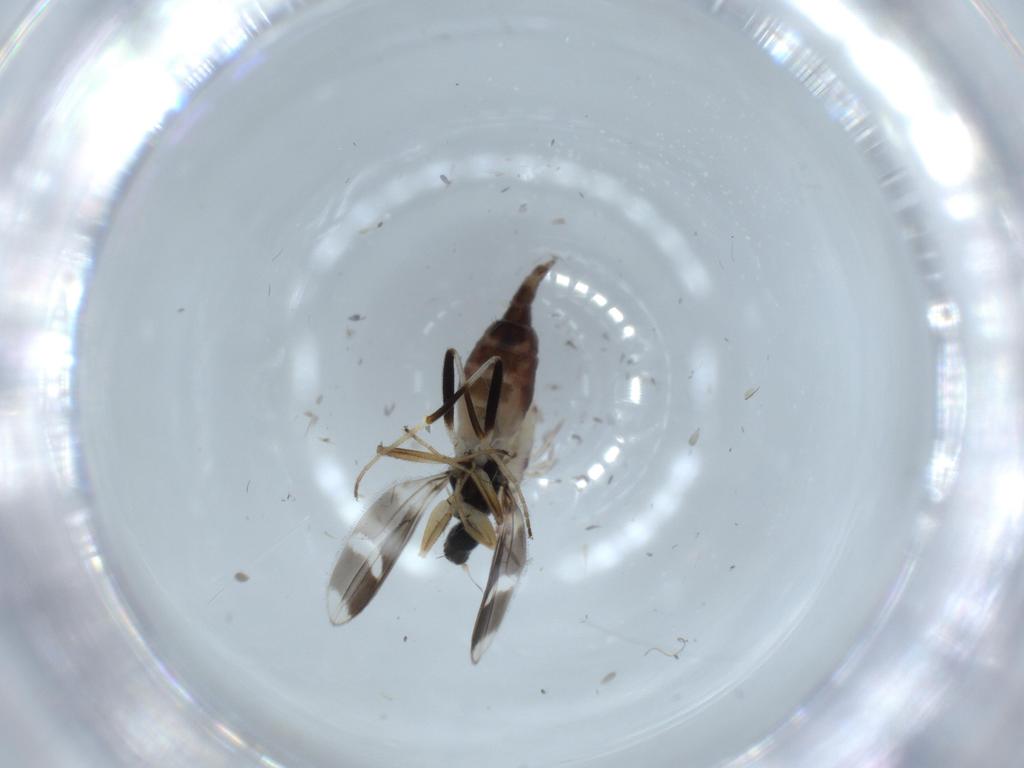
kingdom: Animalia
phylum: Arthropoda
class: Insecta
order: Diptera
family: Hybotidae
